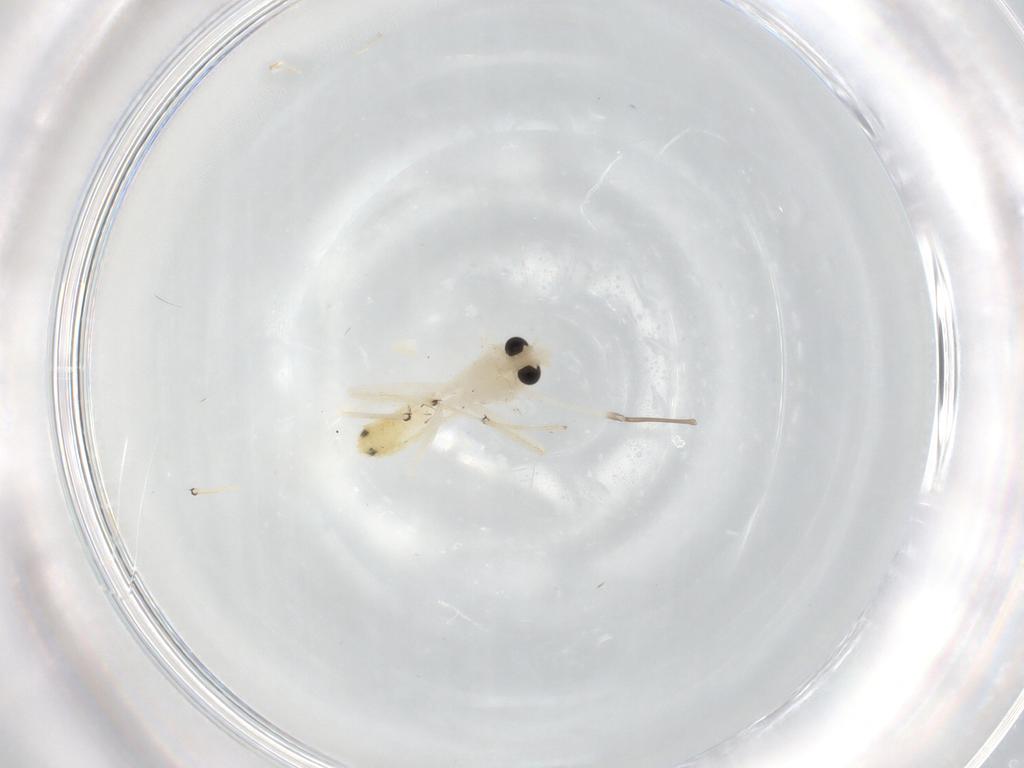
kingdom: Animalia
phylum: Arthropoda
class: Insecta
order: Diptera
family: Chironomidae
